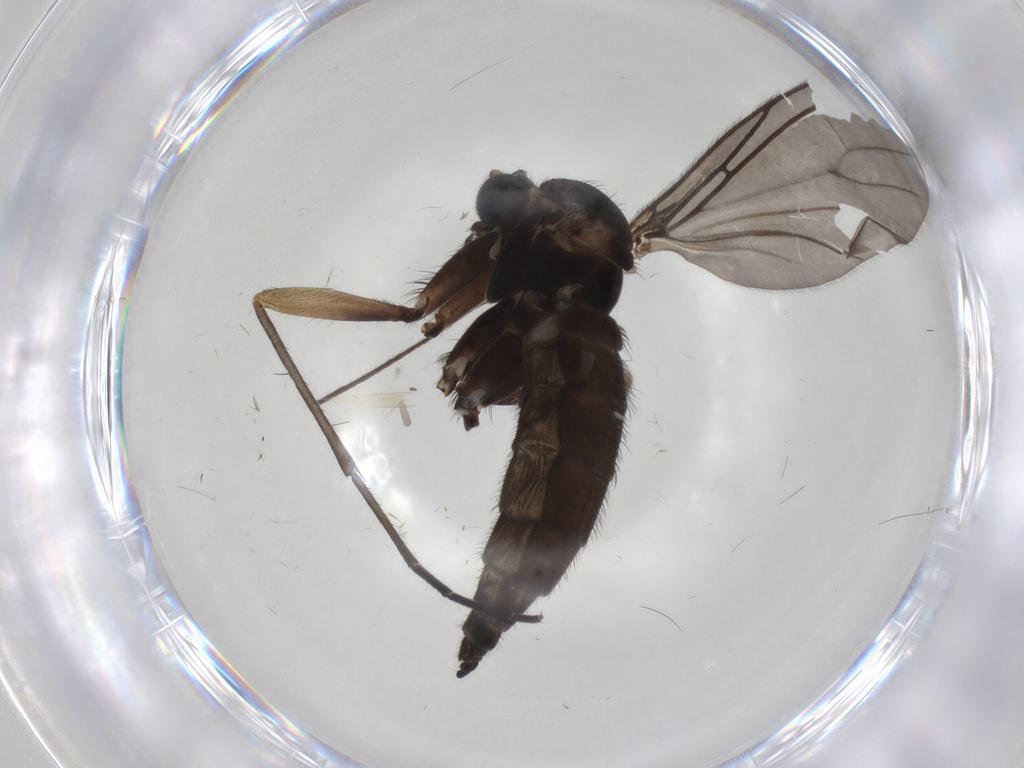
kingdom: Animalia
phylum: Arthropoda
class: Insecta
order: Diptera
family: Sciaridae
